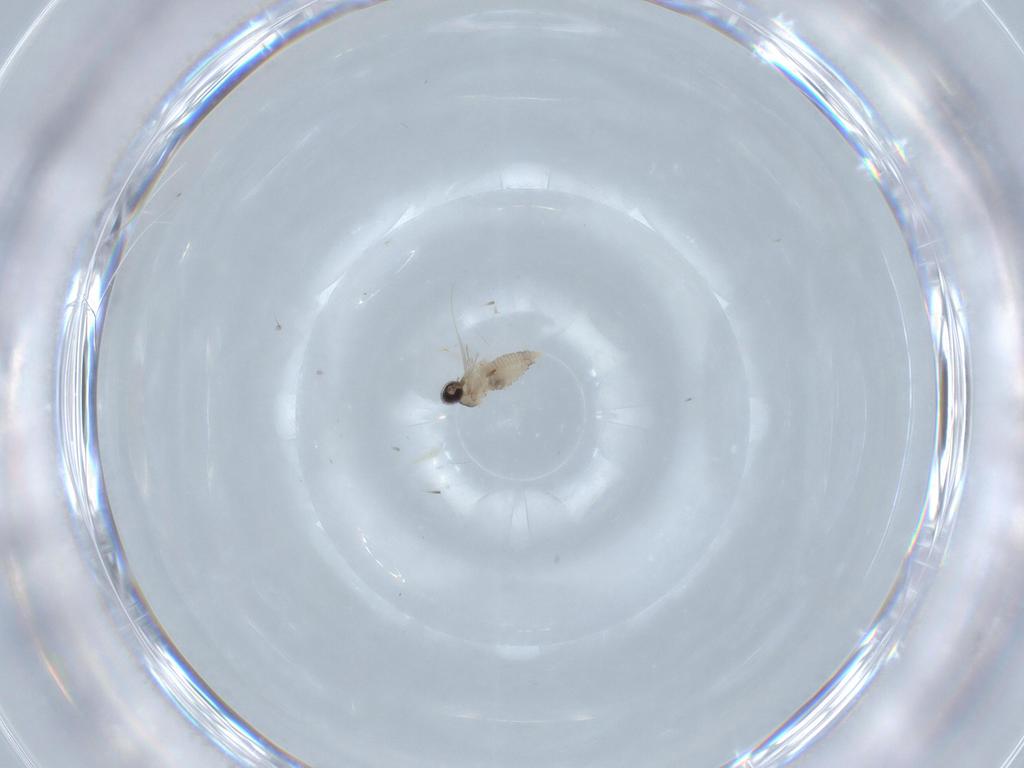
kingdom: Animalia
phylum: Arthropoda
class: Insecta
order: Diptera
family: Cecidomyiidae
